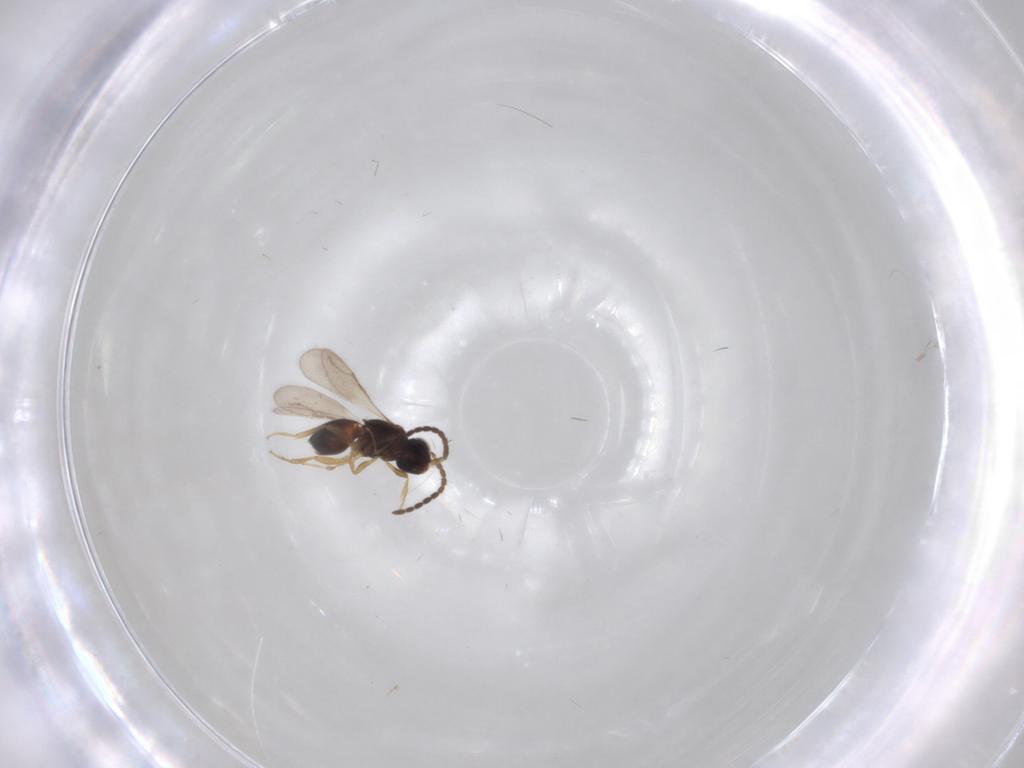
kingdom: Animalia
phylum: Arthropoda
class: Insecta
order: Hymenoptera
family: Ceraphronidae
